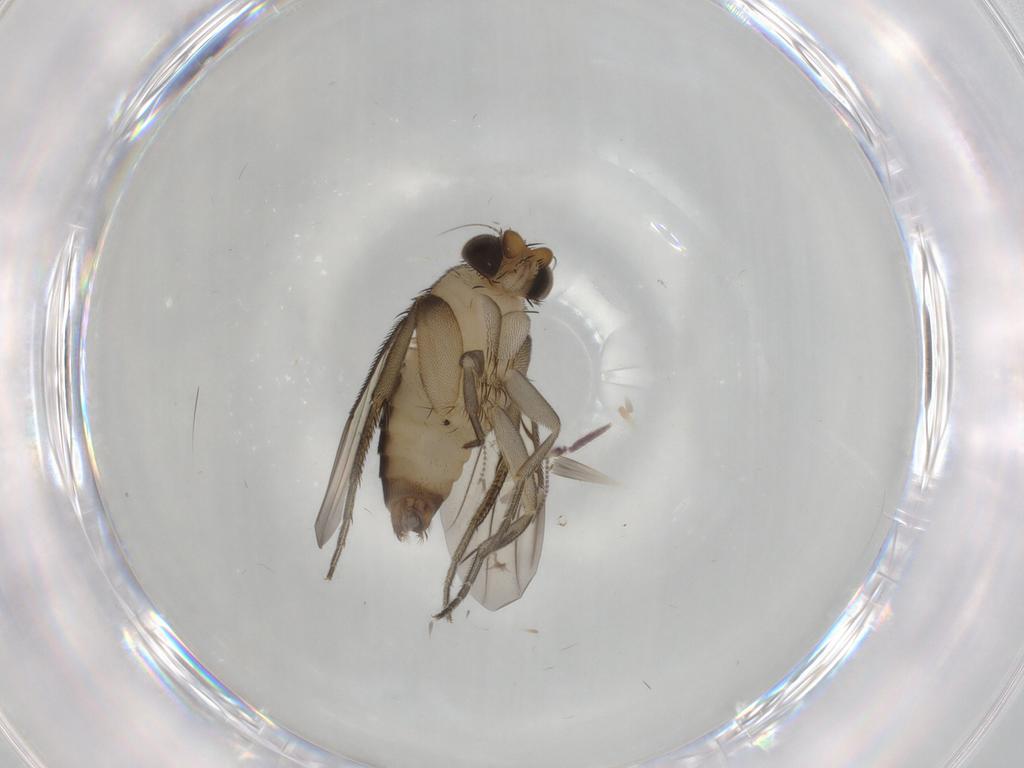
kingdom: Animalia
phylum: Arthropoda
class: Insecta
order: Diptera
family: Phoridae
